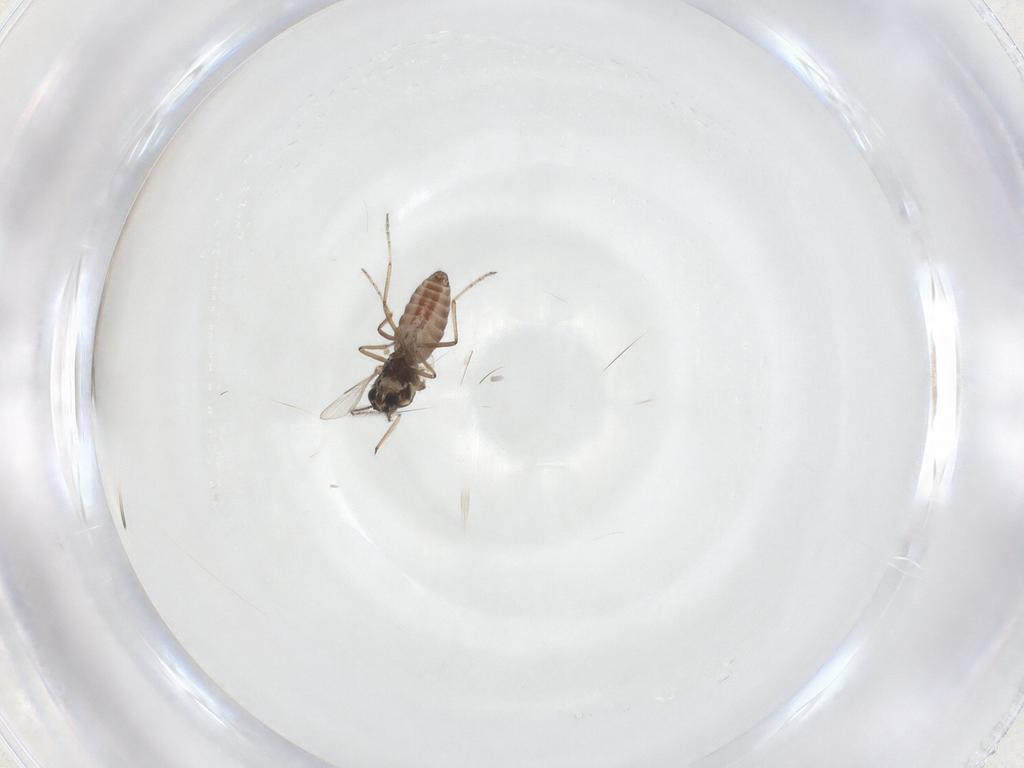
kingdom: Animalia
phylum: Arthropoda
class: Insecta
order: Diptera
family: Ceratopogonidae
